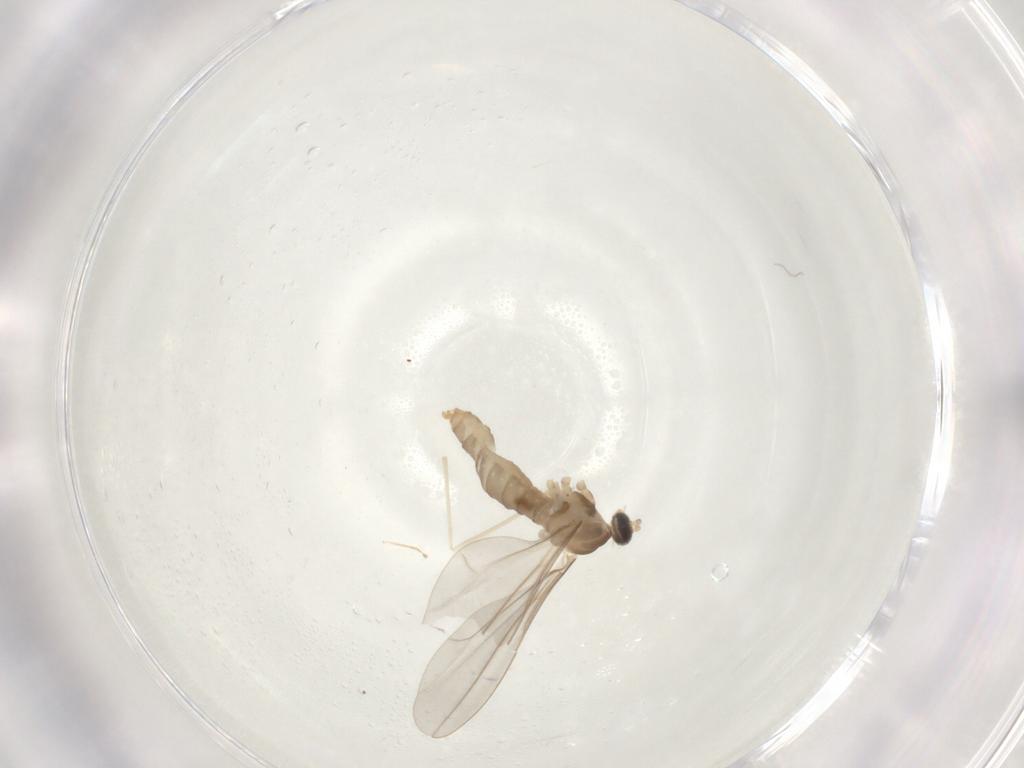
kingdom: Animalia
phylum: Arthropoda
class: Insecta
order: Diptera
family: Cecidomyiidae
